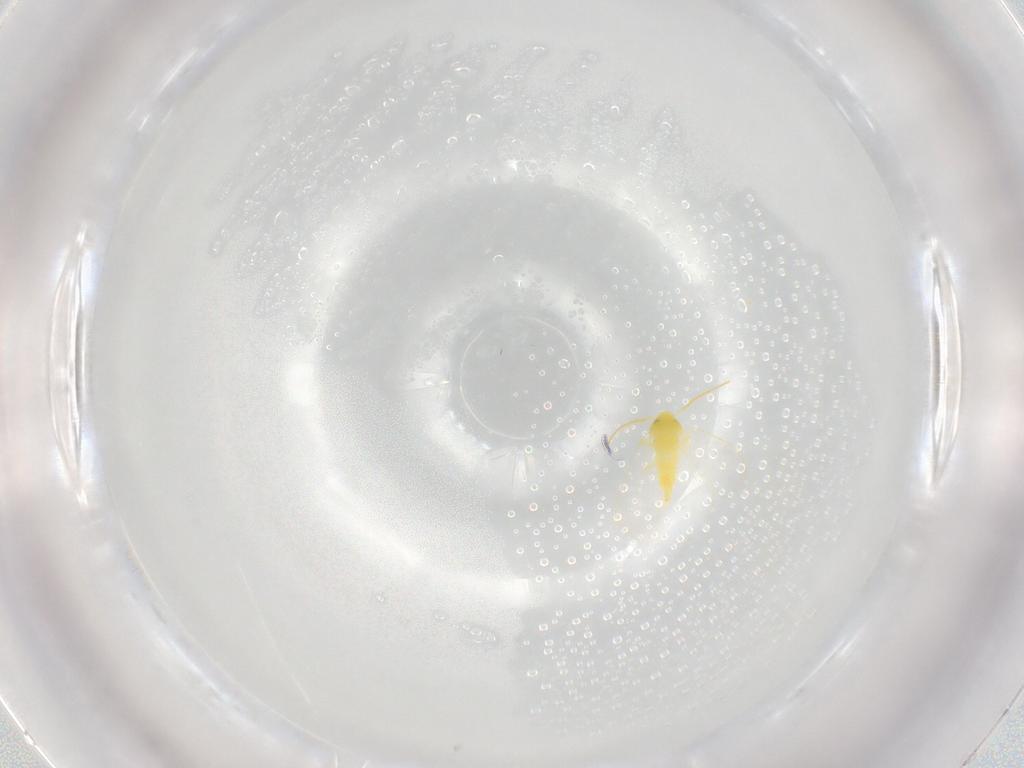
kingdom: Animalia
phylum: Arthropoda
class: Insecta
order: Hemiptera
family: Aleyrodidae
